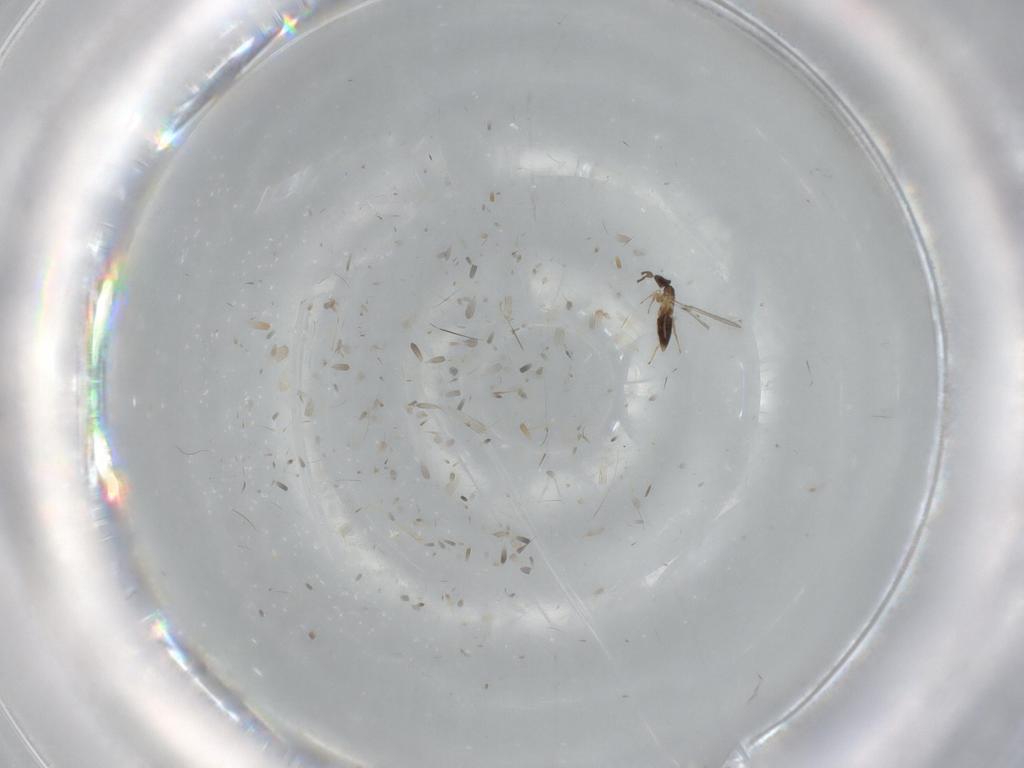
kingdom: Animalia
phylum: Arthropoda
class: Insecta
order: Hymenoptera
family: Mymaridae
